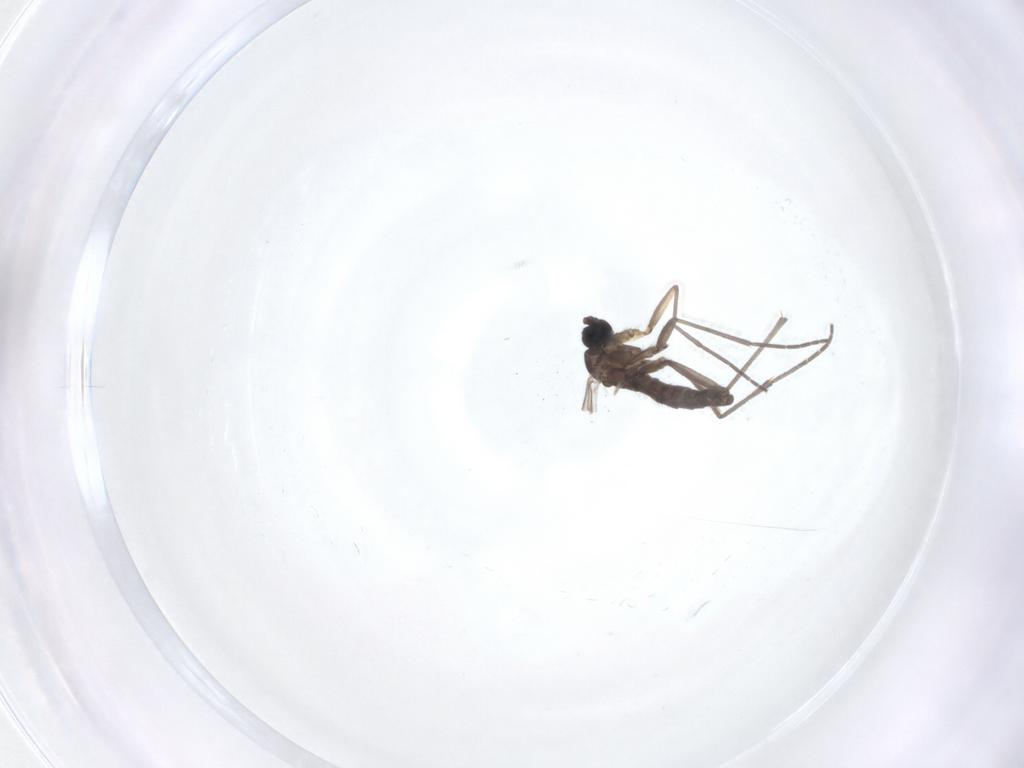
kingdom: Animalia
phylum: Arthropoda
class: Insecta
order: Diptera
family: Sciaridae
